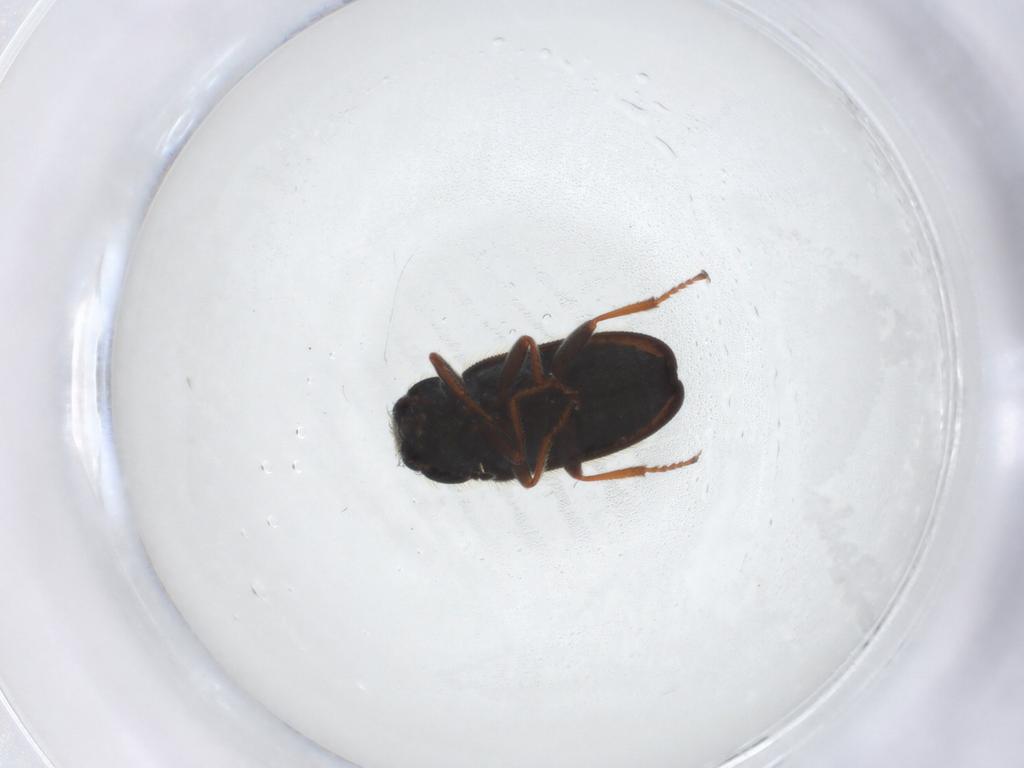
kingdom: Animalia
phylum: Arthropoda
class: Insecta
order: Coleoptera
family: Melyridae
